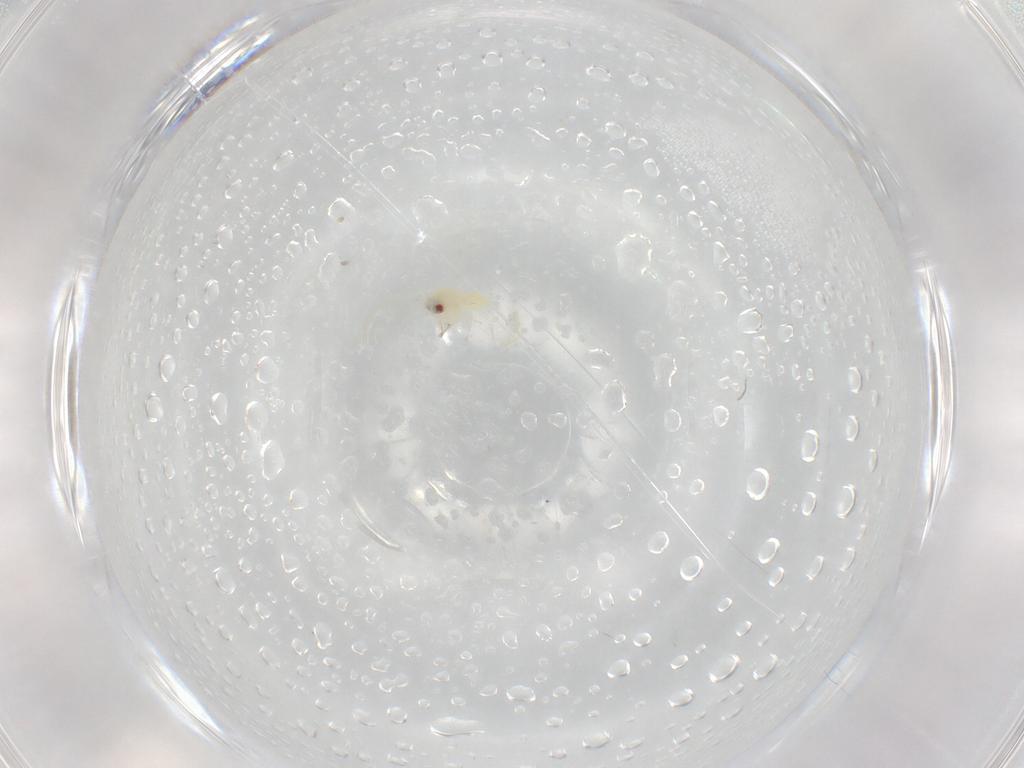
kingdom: Animalia
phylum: Arthropoda
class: Insecta
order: Hemiptera
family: Aleyrodidae
